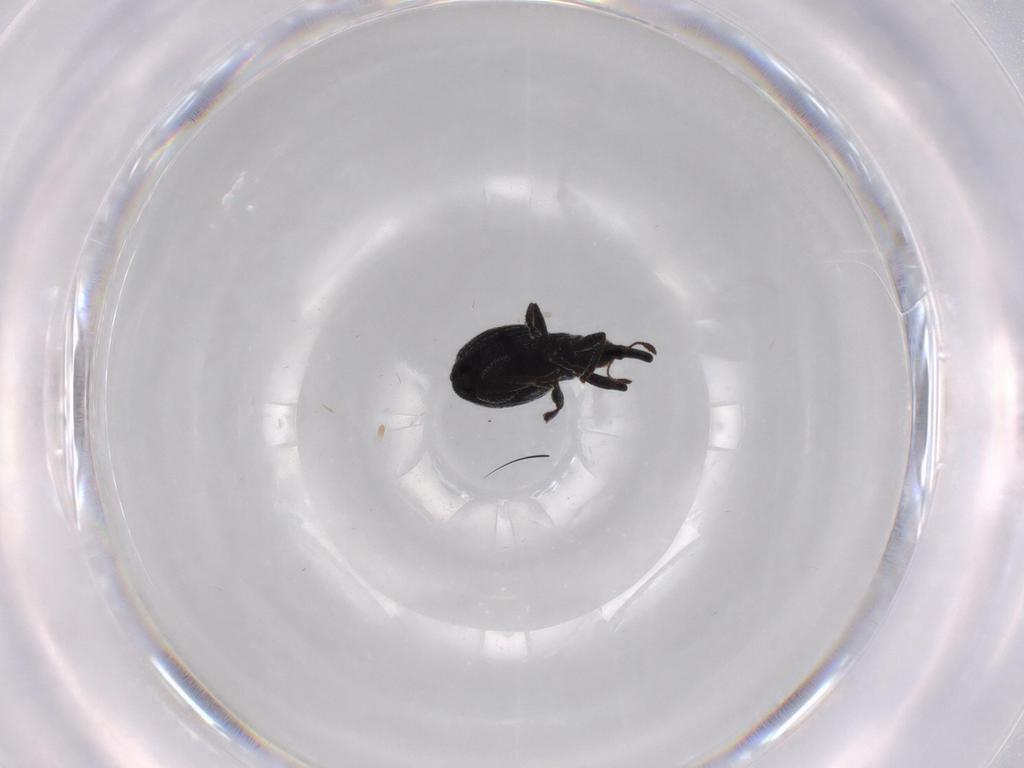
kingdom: Animalia
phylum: Arthropoda
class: Insecta
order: Coleoptera
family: Brentidae
